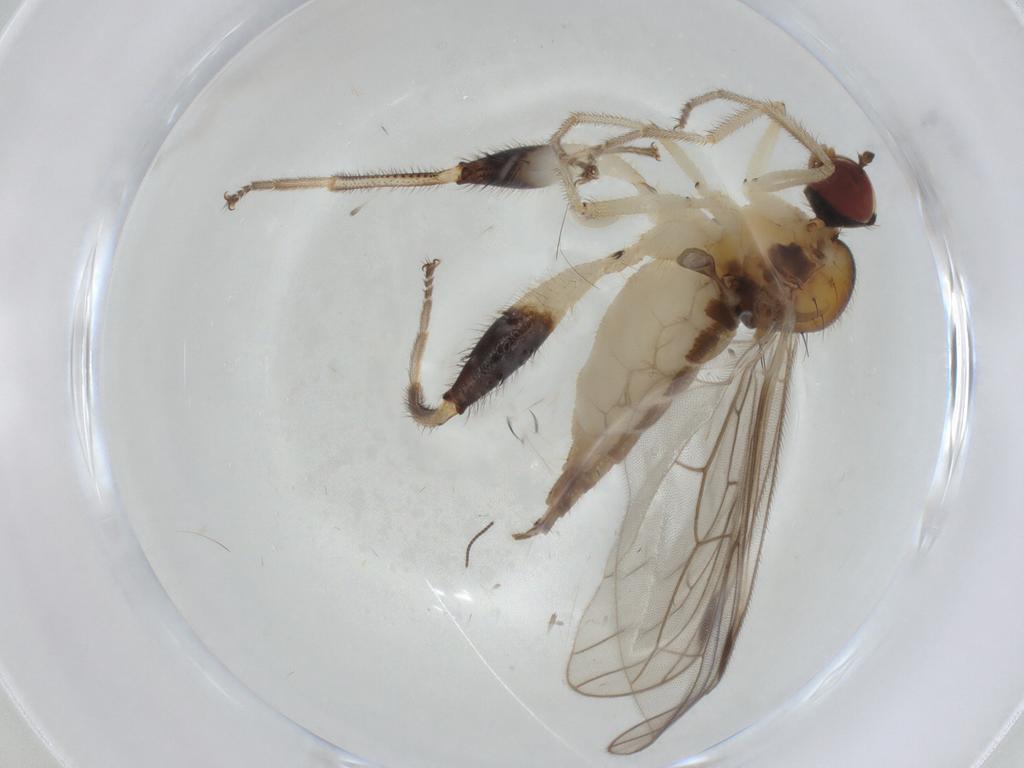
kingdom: Animalia
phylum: Arthropoda
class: Insecta
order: Diptera
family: Hybotidae
